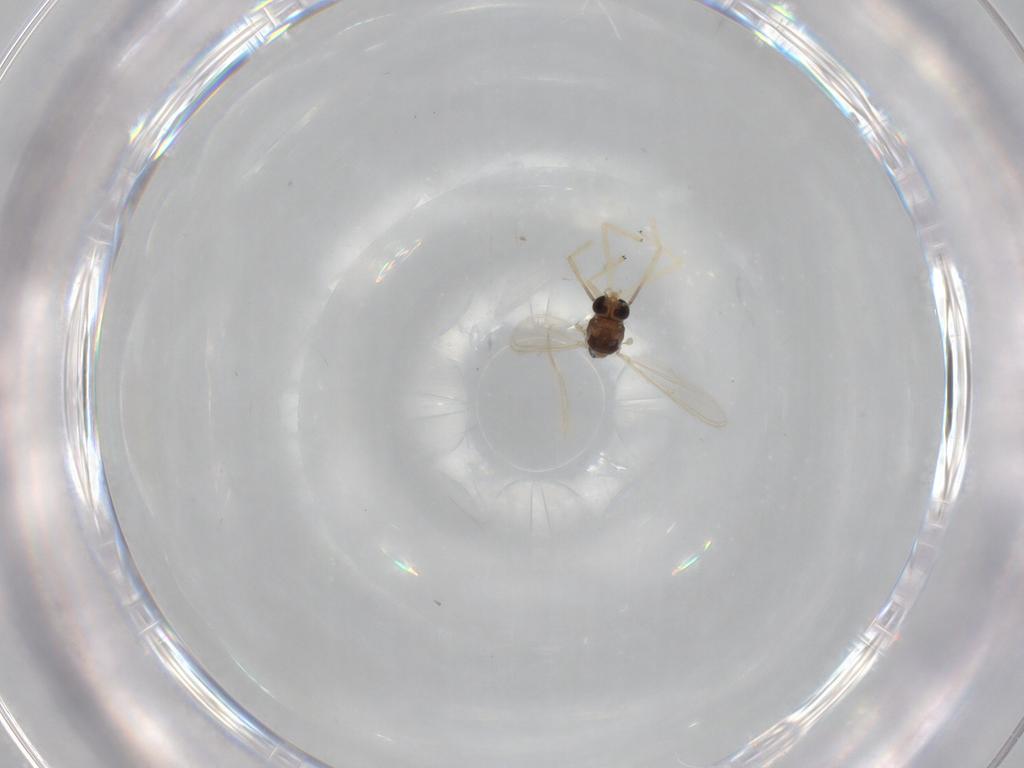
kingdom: Animalia
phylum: Arthropoda
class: Insecta
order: Diptera
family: Chironomidae
